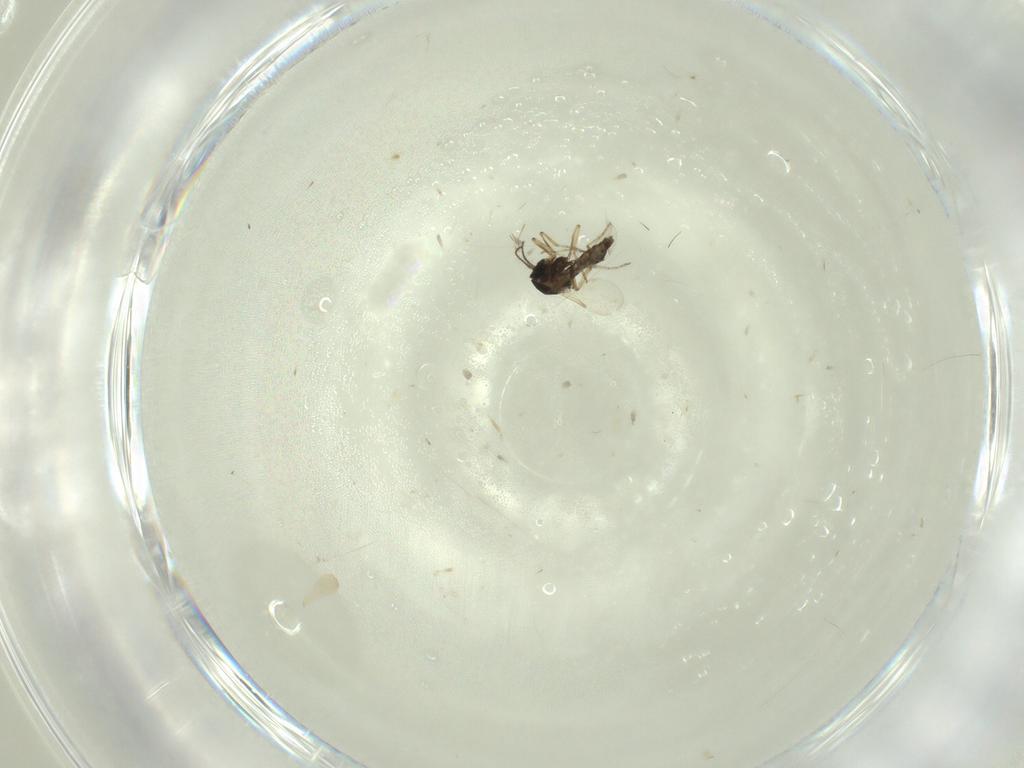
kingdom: Animalia
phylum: Arthropoda
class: Insecta
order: Diptera
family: Ceratopogonidae
